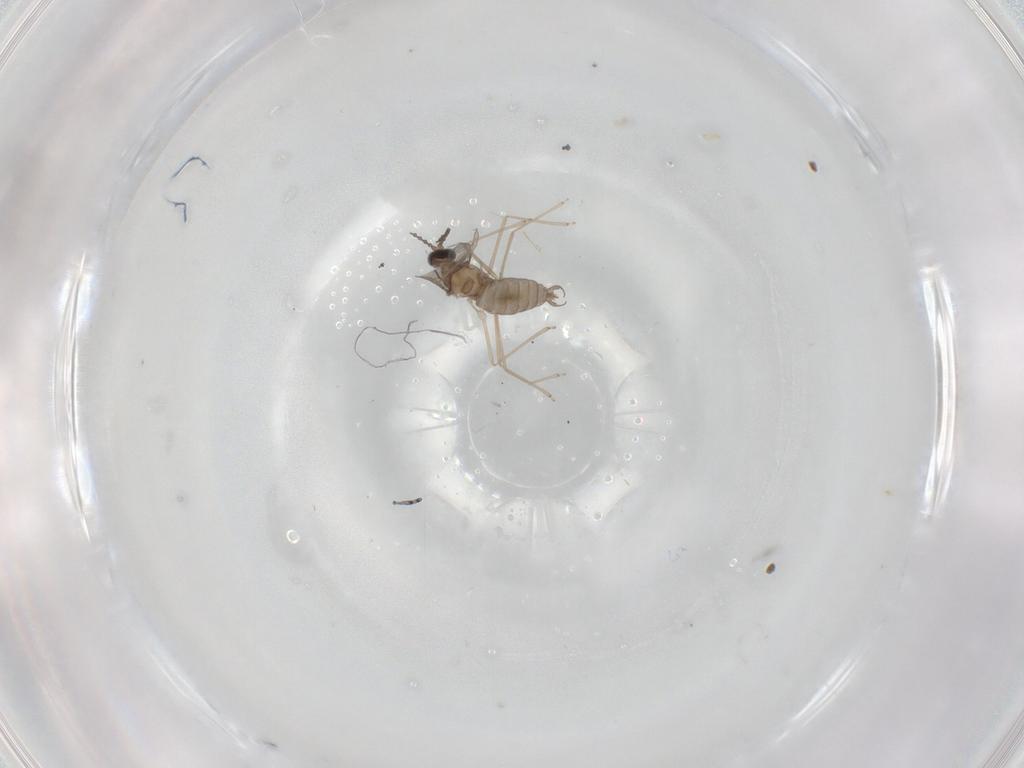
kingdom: Animalia
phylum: Arthropoda
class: Insecta
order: Diptera
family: Cecidomyiidae
